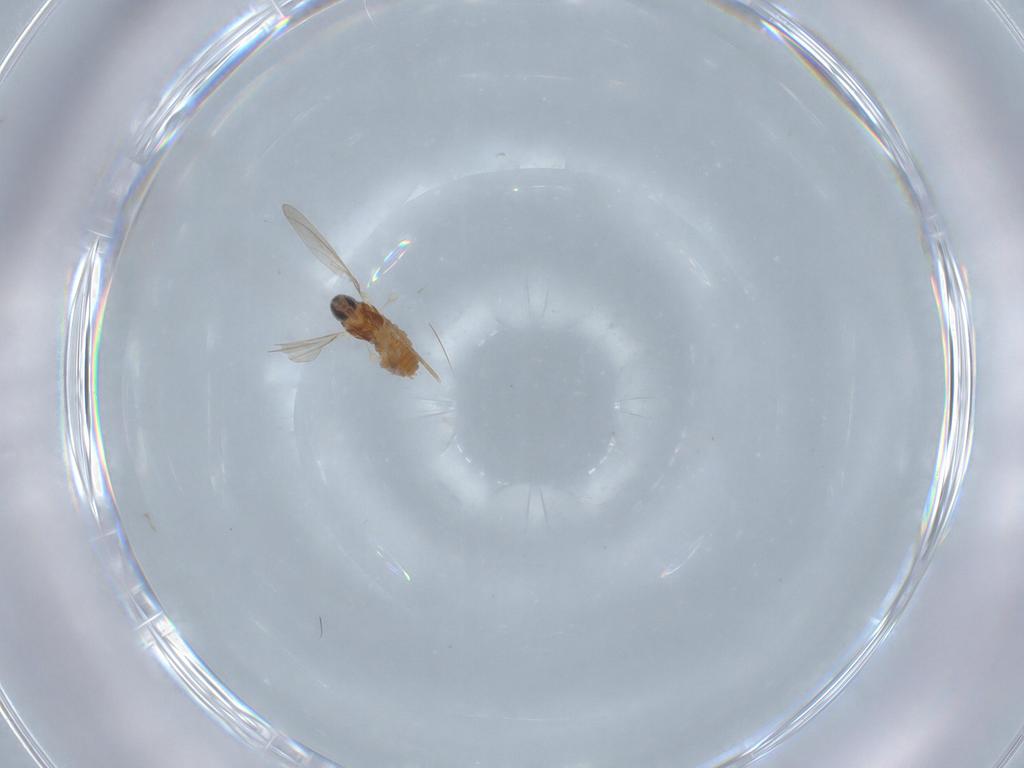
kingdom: Animalia
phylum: Arthropoda
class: Insecta
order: Diptera
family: Cecidomyiidae
